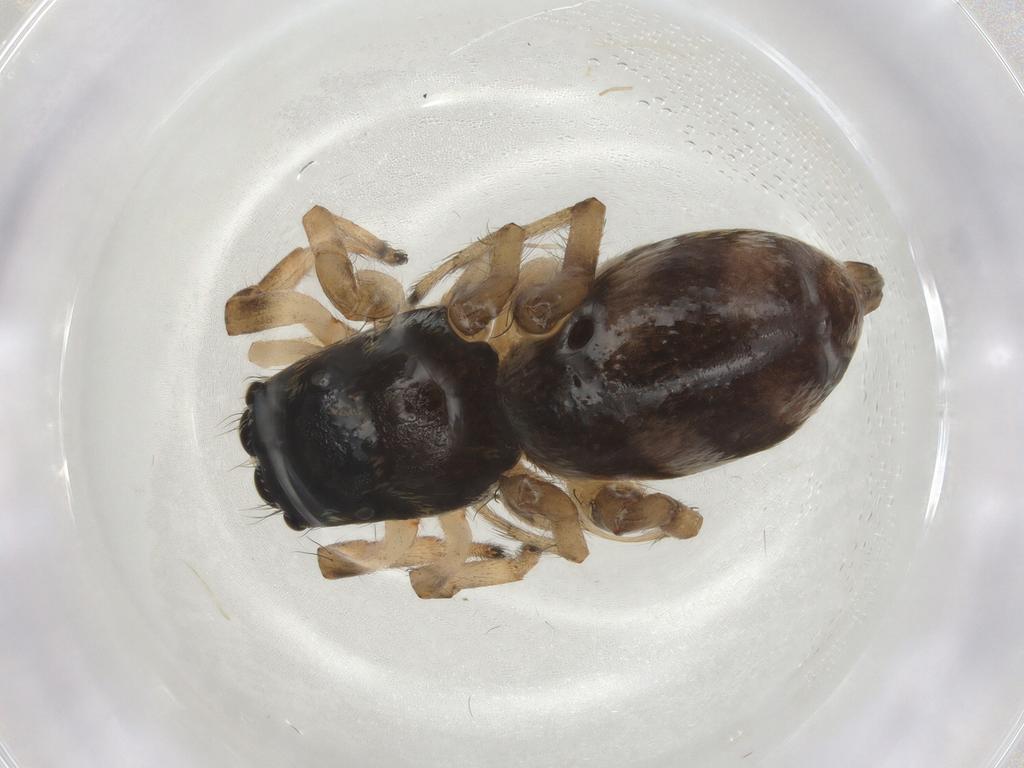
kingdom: Animalia
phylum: Arthropoda
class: Arachnida
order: Araneae
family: Salticidae
